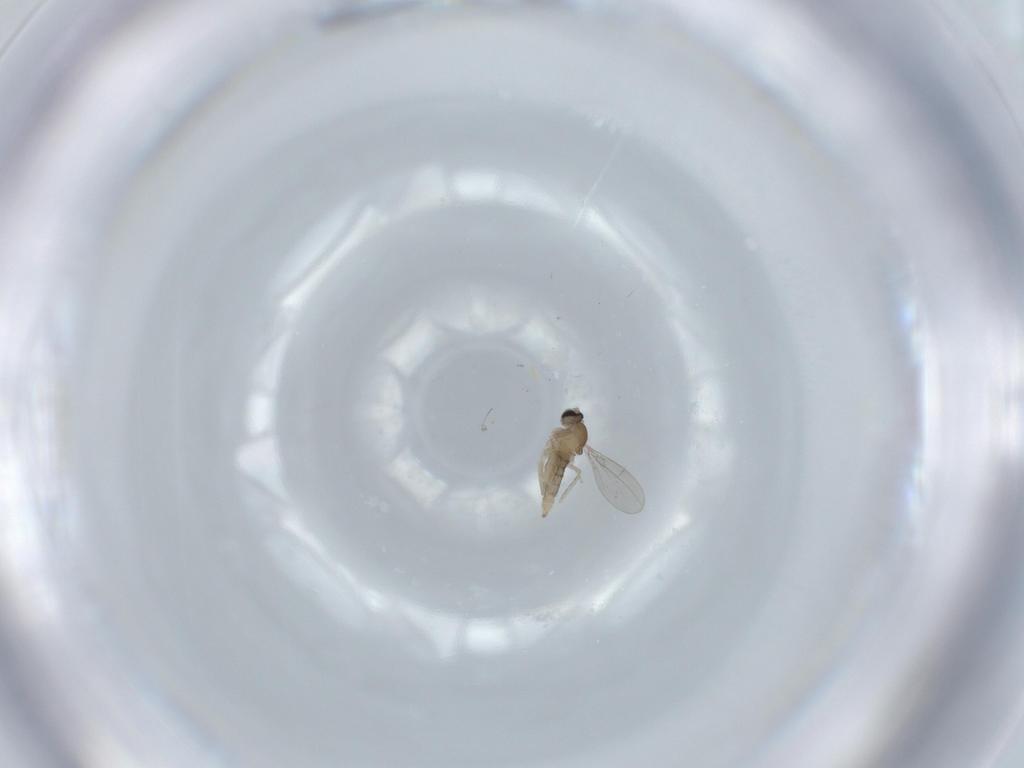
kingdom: Animalia
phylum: Arthropoda
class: Insecta
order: Diptera
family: Cecidomyiidae
